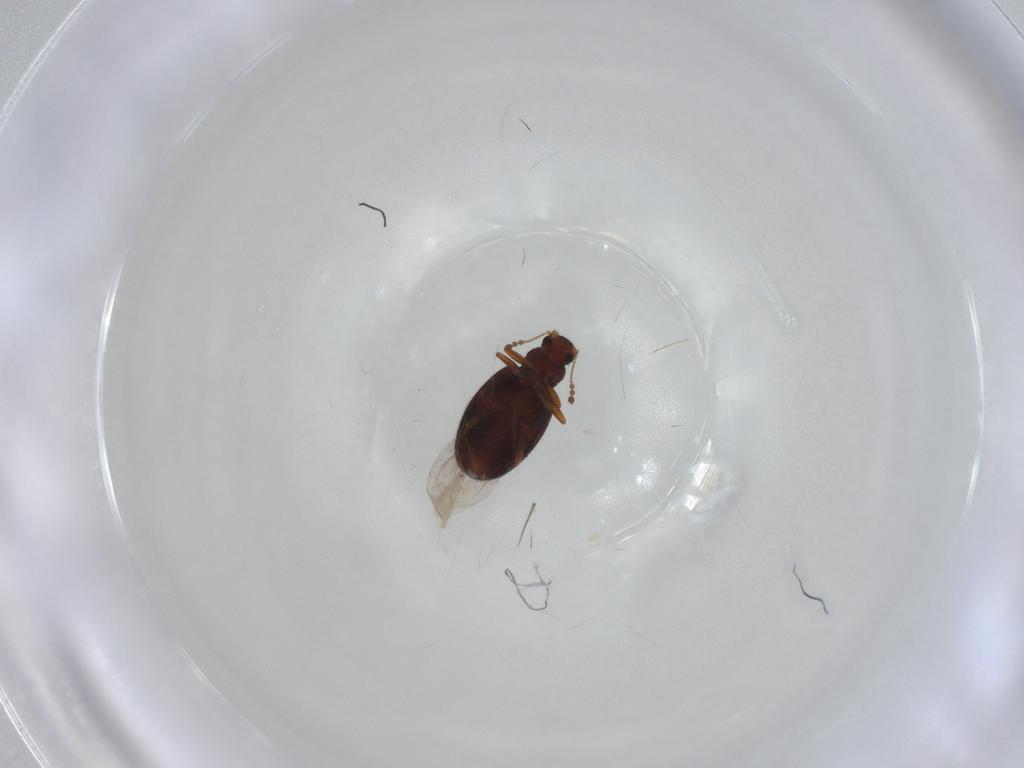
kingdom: Animalia
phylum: Arthropoda
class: Insecta
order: Coleoptera
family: Latridiidae
